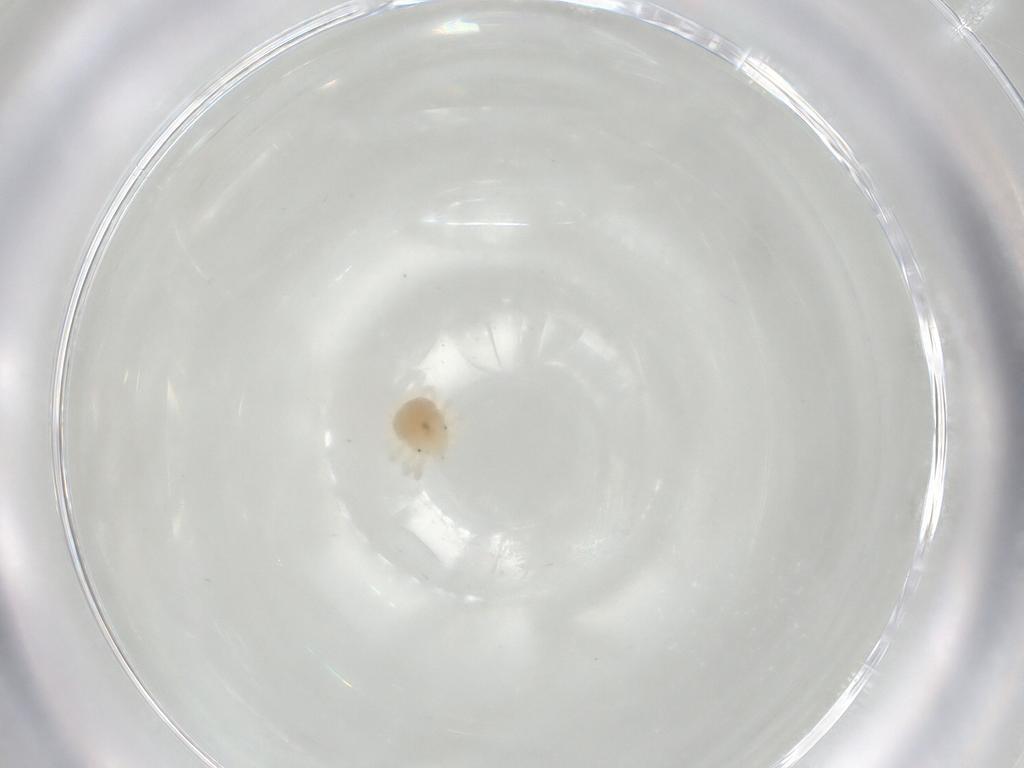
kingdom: Animalia
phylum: Arthropoda
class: Arachnida
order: Trombidiformes
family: Anystidae
